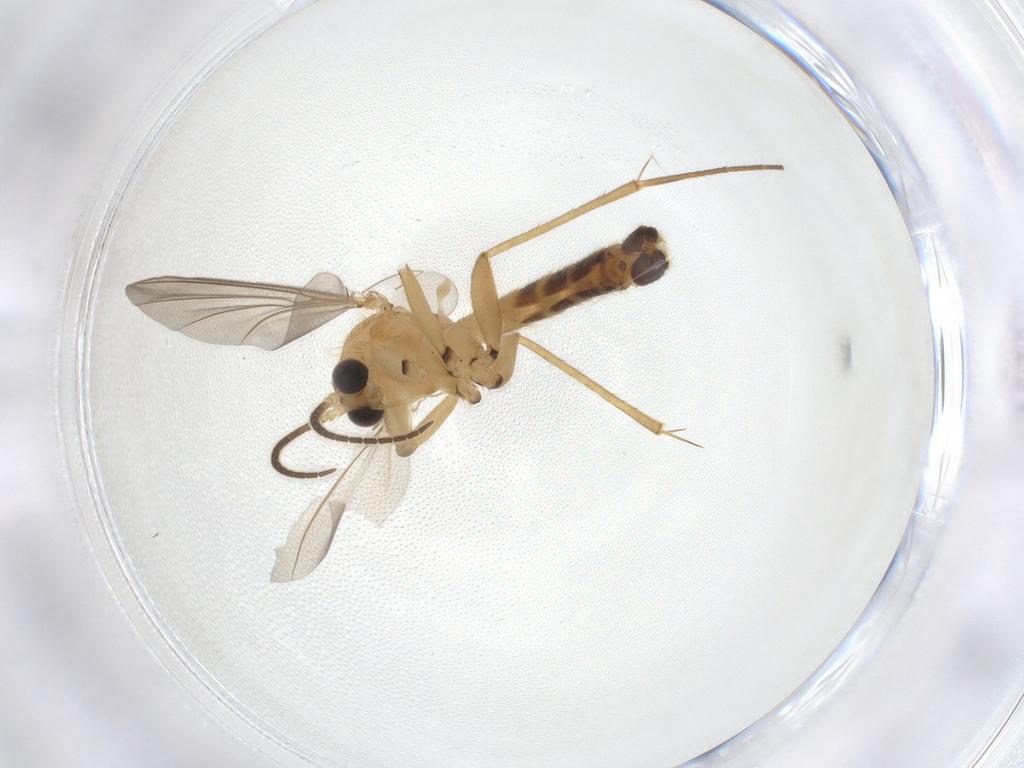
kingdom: Animalia
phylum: Arthropoda
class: Insecta
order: Diptera
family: Mycetophilidae
